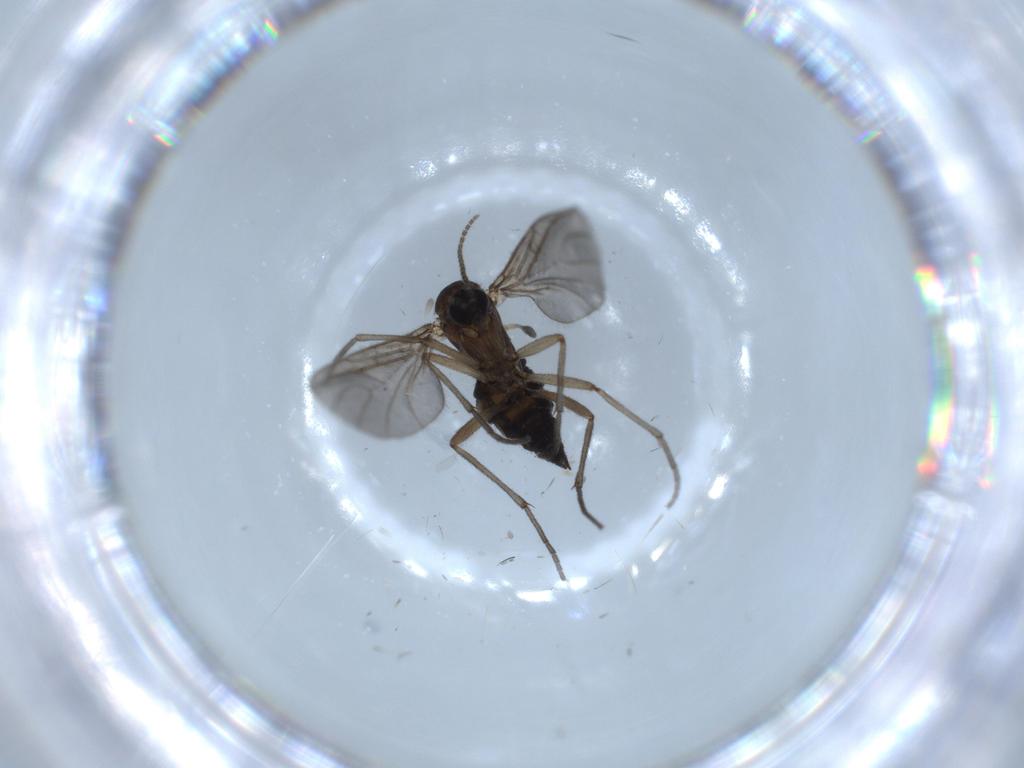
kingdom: Animalia
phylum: Arthropoda
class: Insecta
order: Diptera
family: Sciaridae
